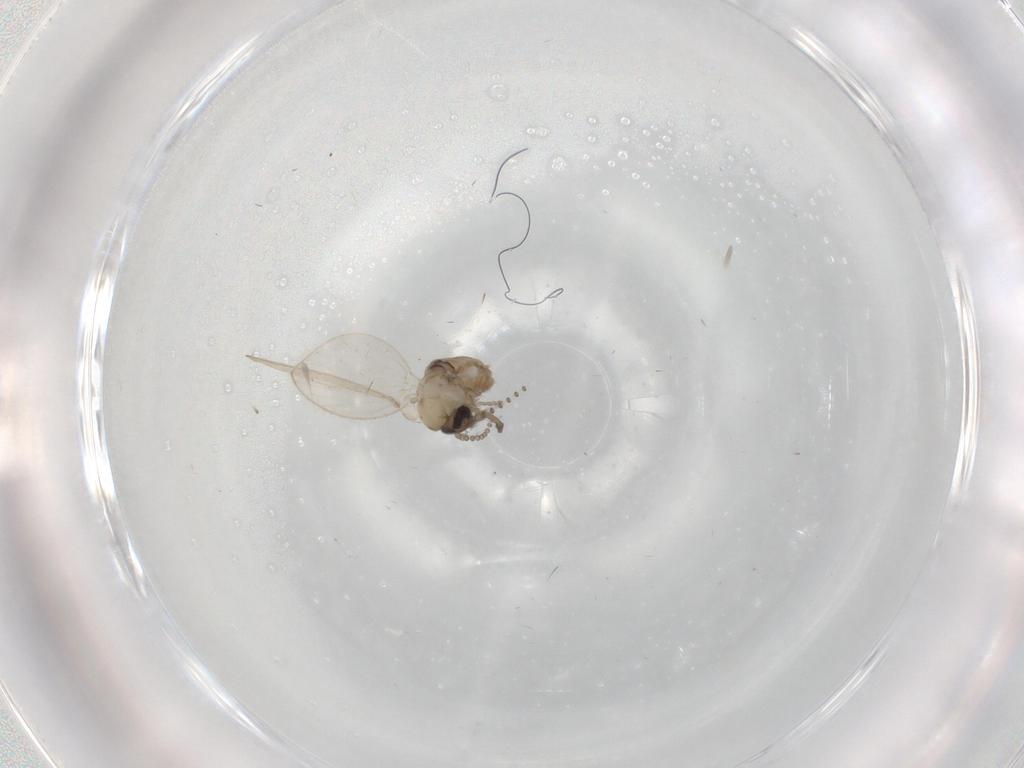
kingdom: Animalia
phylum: Arthropoda
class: Insecta
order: Diptera
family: Psychodidae
